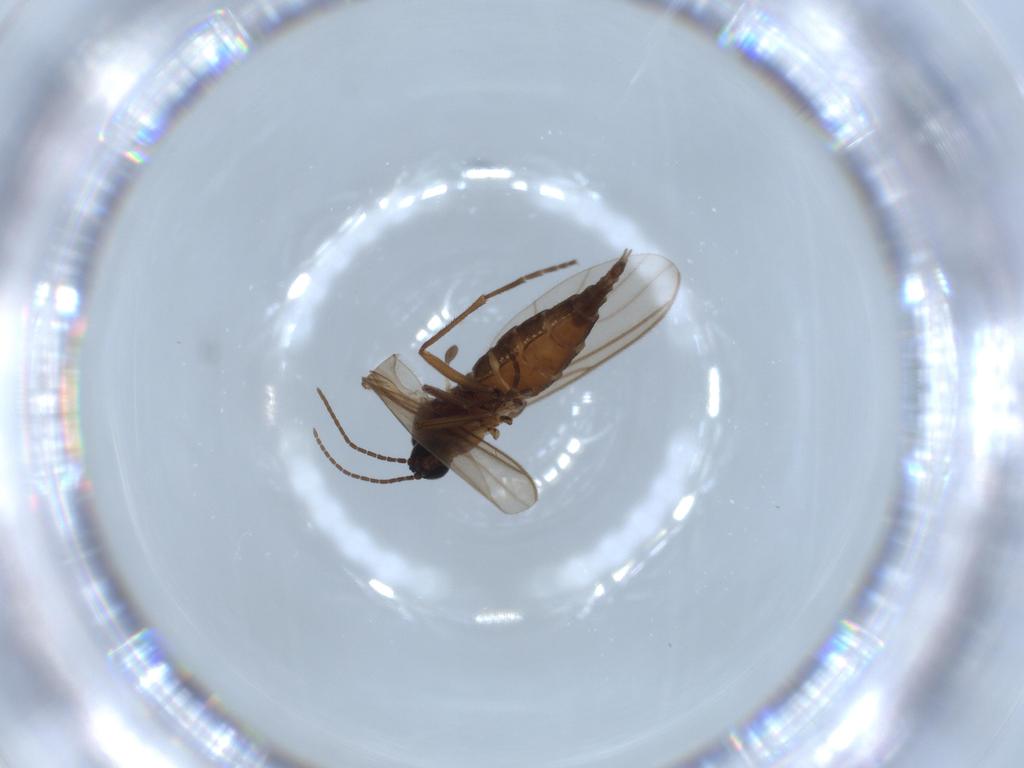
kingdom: Animalia
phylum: Arthropoda
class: Insecta
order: Diptera
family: Sciaridae
